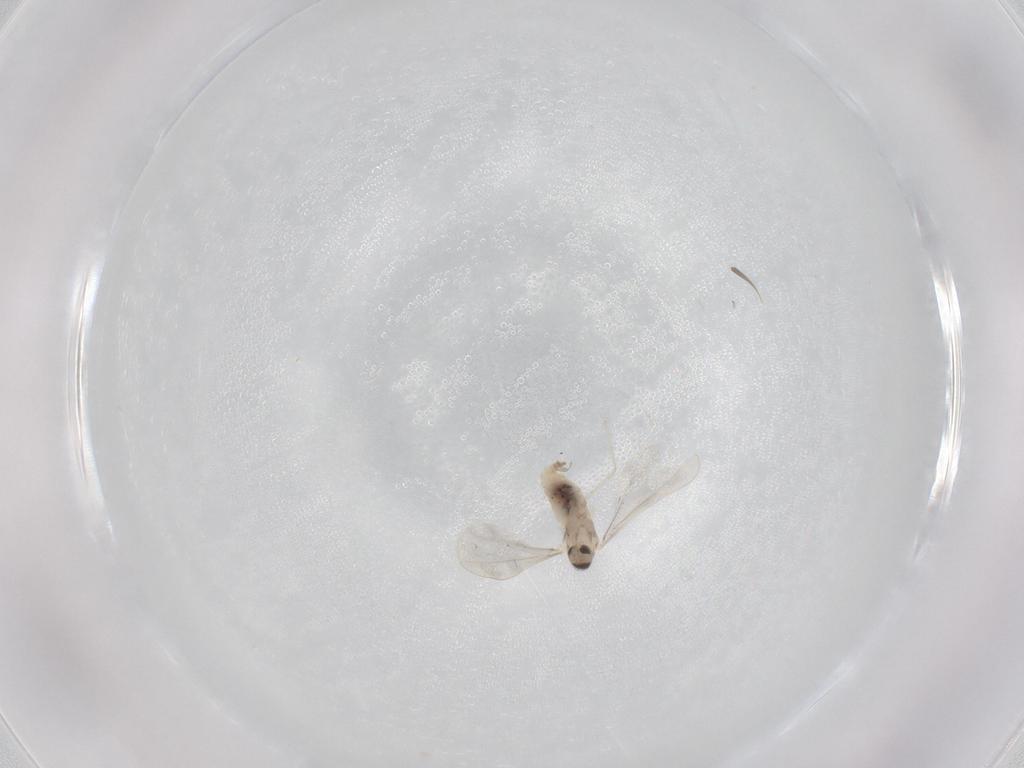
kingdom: Animalia
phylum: Arthropoda
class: Insecta
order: Diptera
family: Cecidomyiidae
